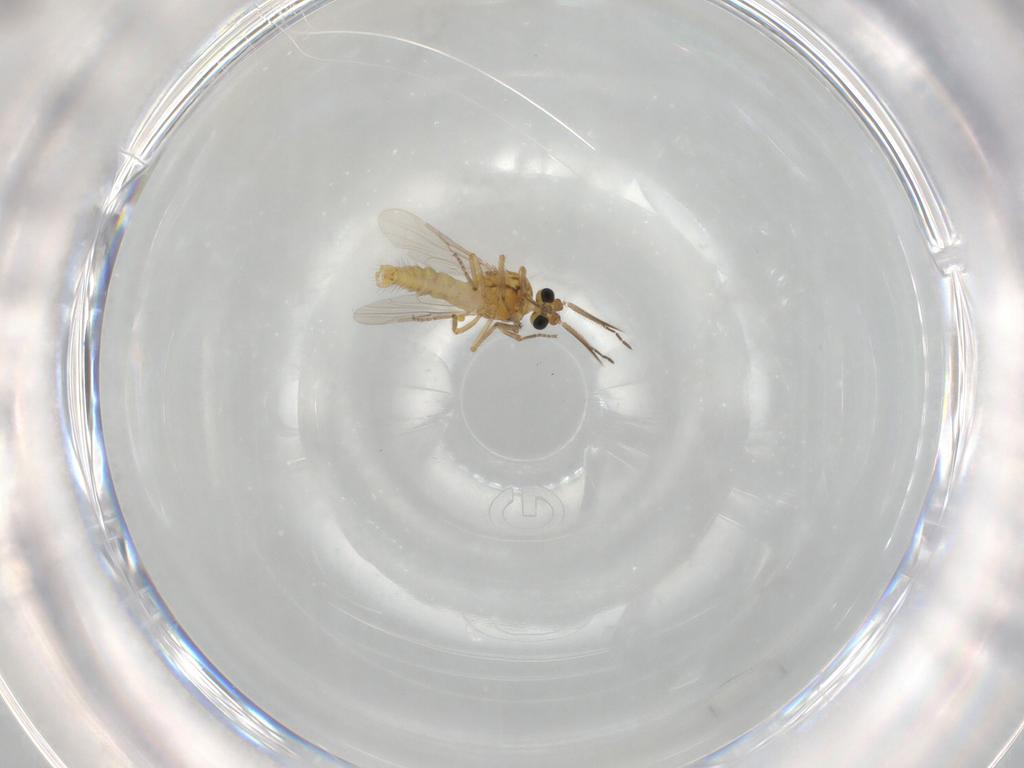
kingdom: Animalia
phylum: Arthropoda
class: Insecta
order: Diptera
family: Ceratopogonidae
